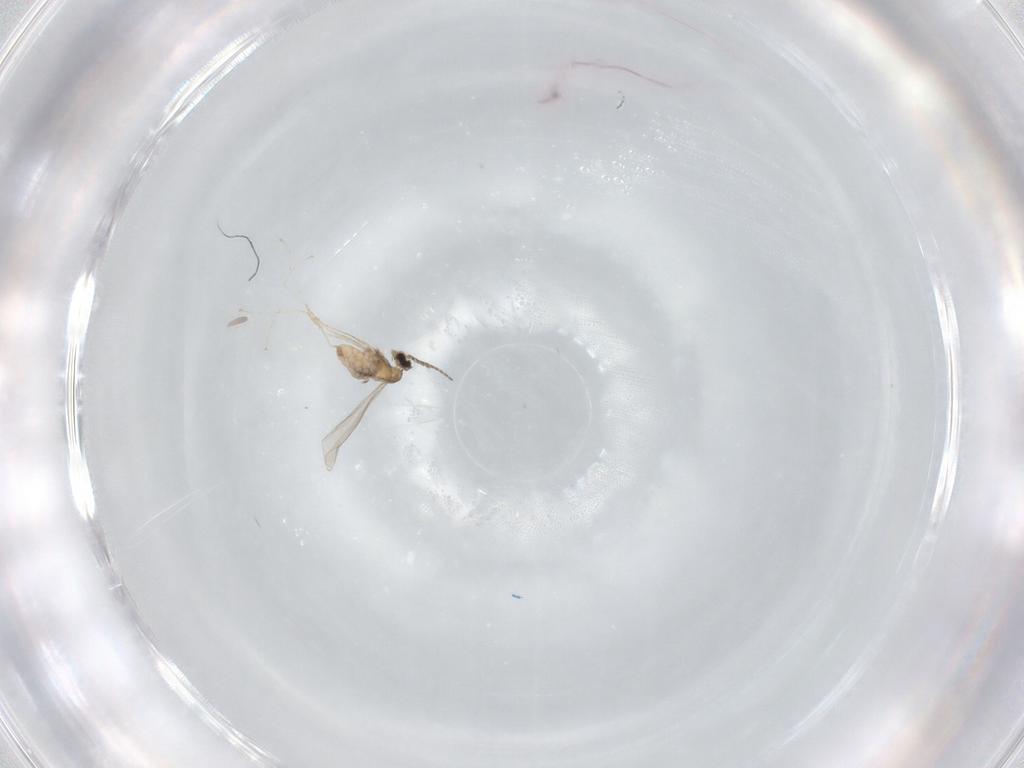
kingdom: Animalia
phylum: Arthropoda
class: Insecta
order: Diptera
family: Cecidomyiidae
